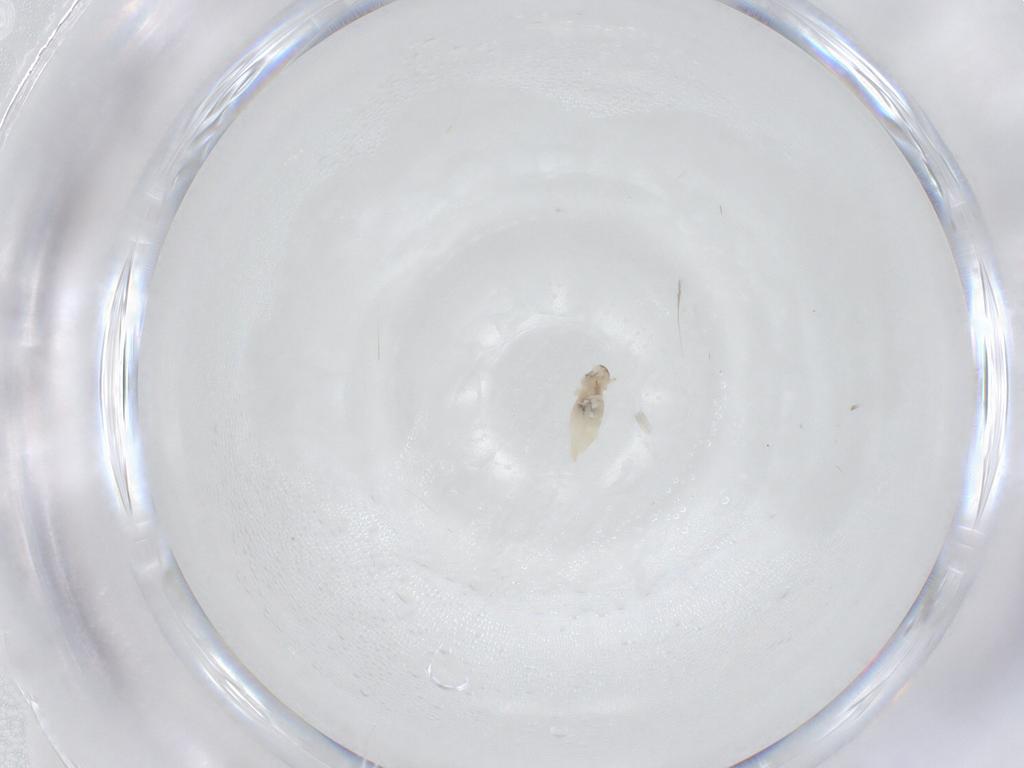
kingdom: Animalia
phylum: Arthropoda
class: Insecta
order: Diptera
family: Cecidomyiidae
